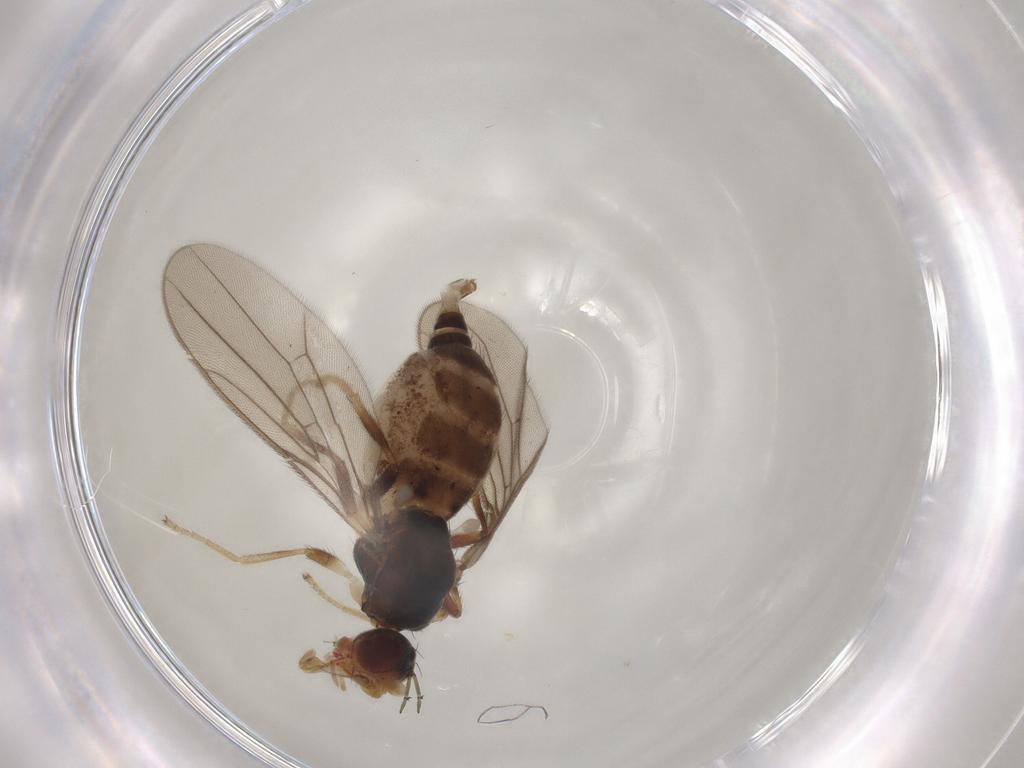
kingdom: Animalia
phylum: Arthropoda
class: Insecta
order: Diptera
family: Chloropidae
